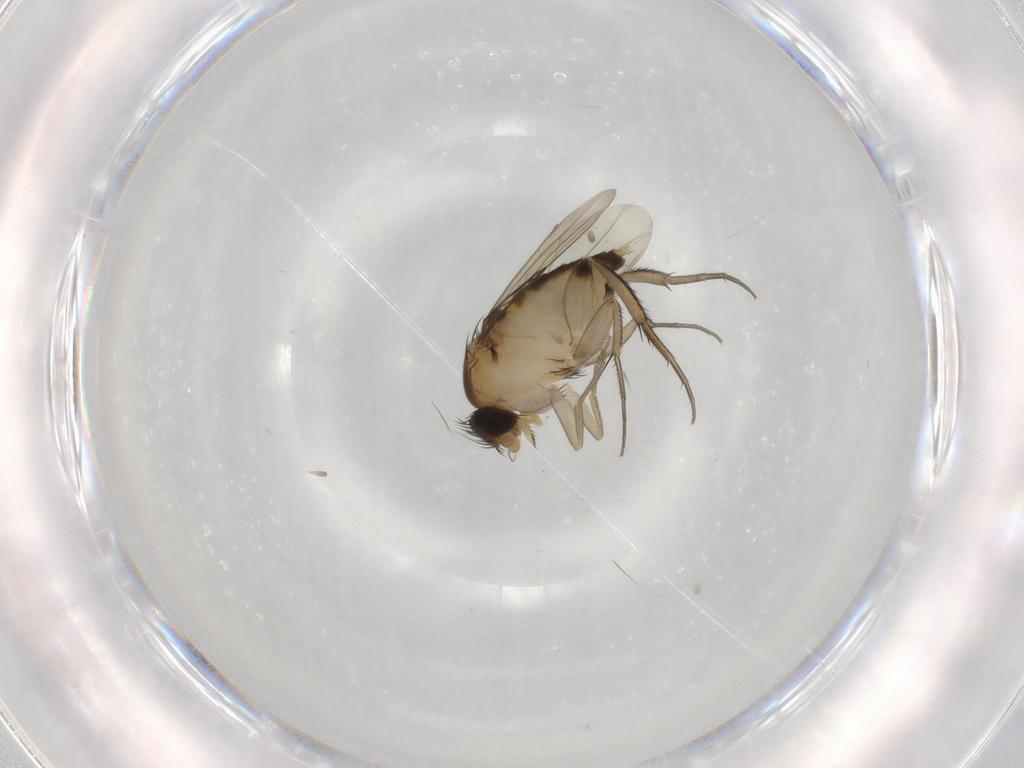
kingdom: Animalia
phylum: Arthropoda
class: Insecta
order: Diptera
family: Phoridae
